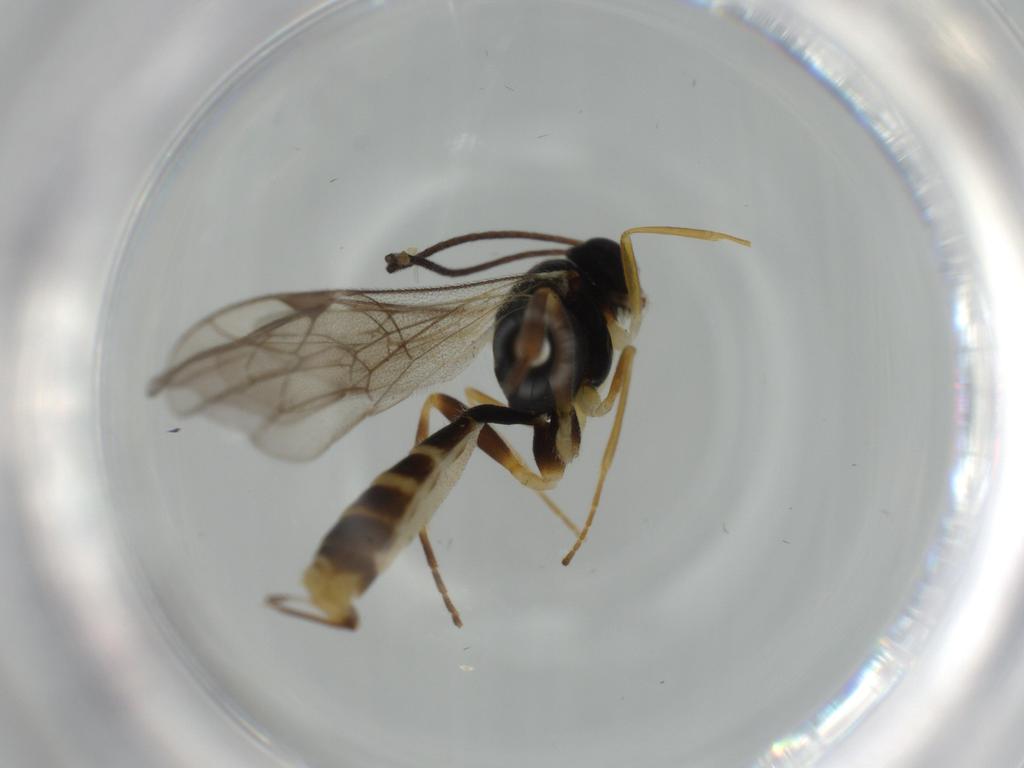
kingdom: Animalia
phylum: Arthropoda
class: Insecta
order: Hymenoptera
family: Ichneumonidae
